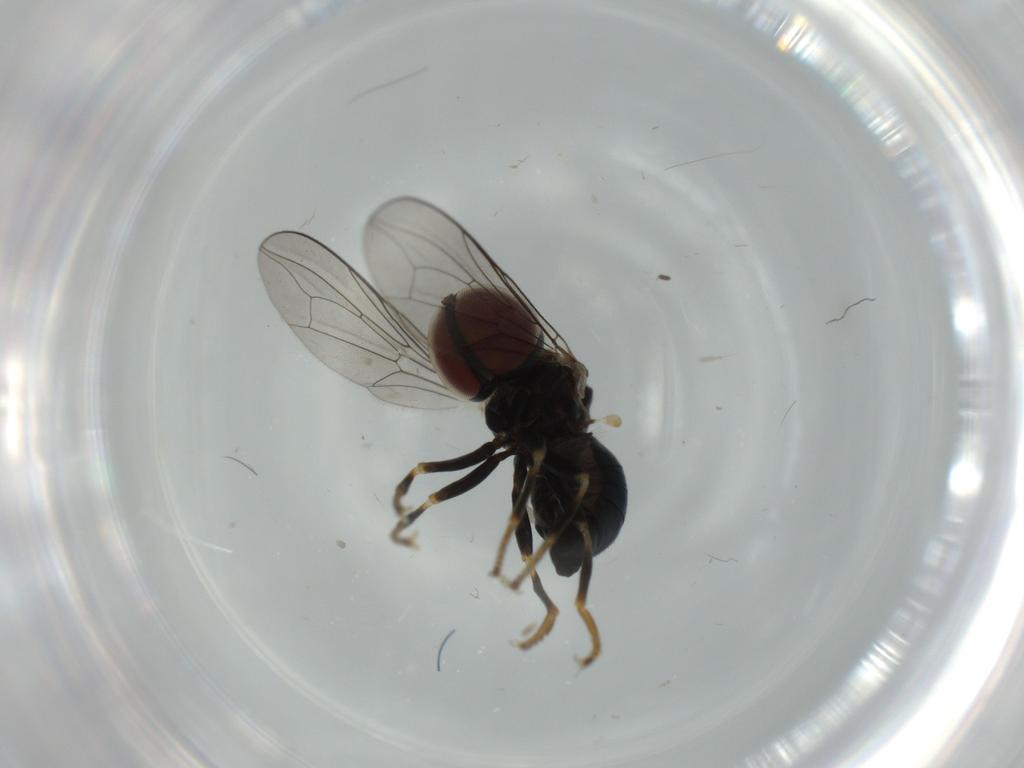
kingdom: Animalia
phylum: Arthropoda
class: Insecta
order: Diptera
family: Pipunculidae
